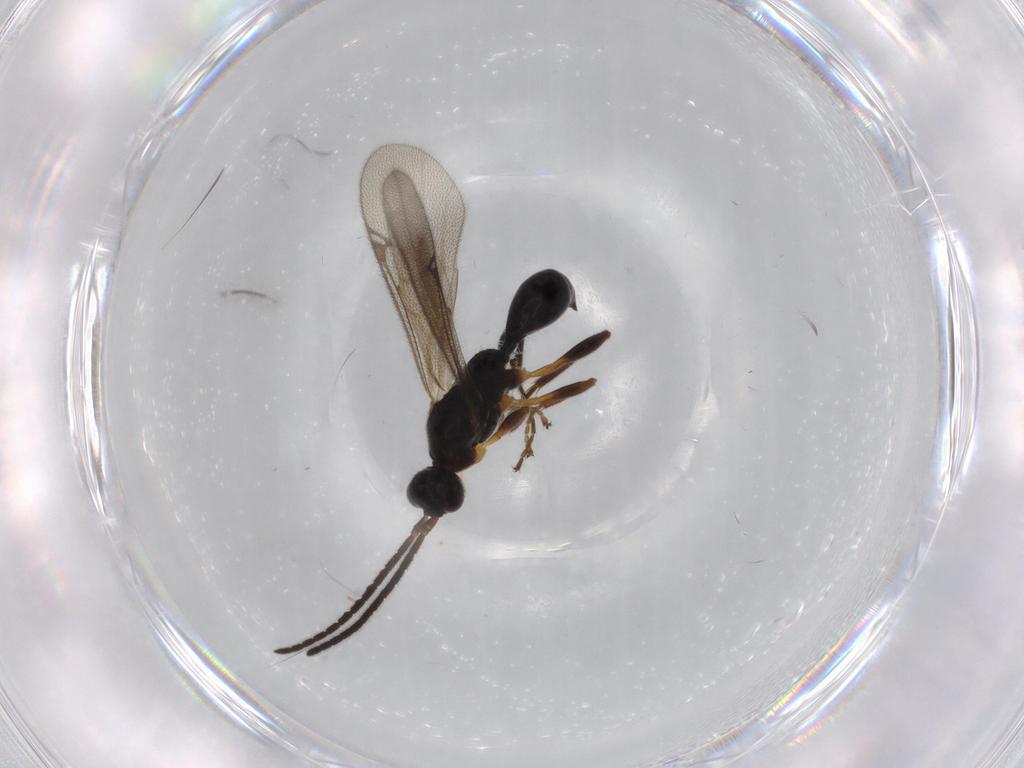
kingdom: Animalia
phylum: Arthropoda
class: Insecta
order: Hymenoptera
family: Proctotrupidae
